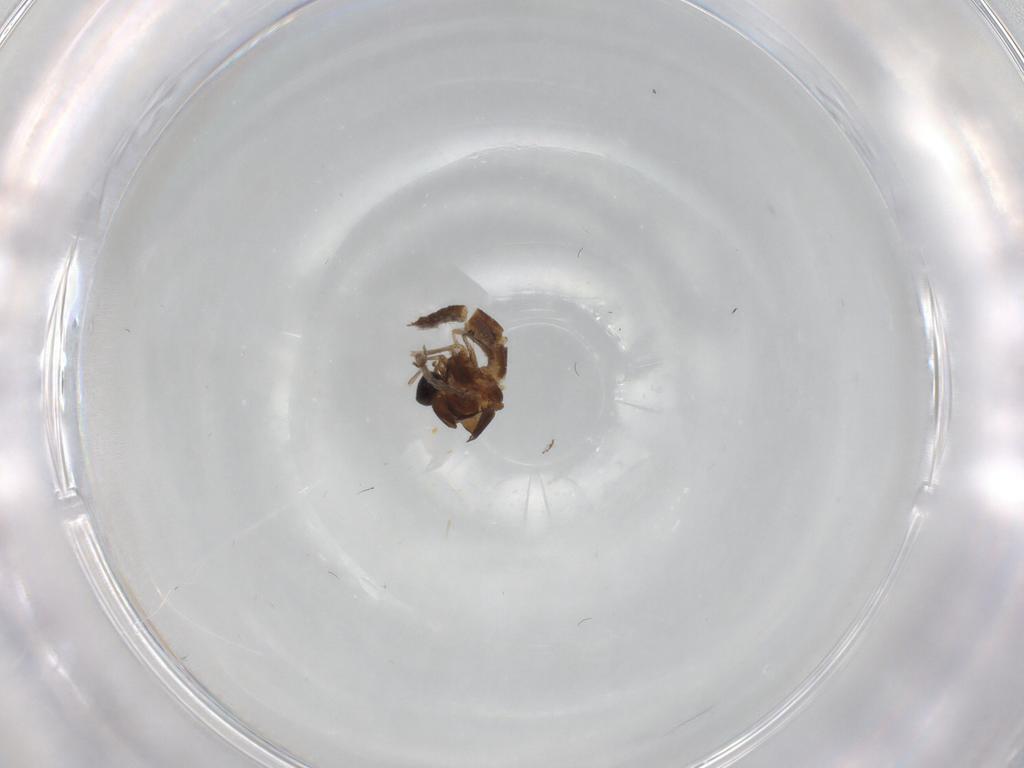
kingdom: Animalia
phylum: Arthropoda
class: Insecta
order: Diptera
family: Ceratopogonidae
